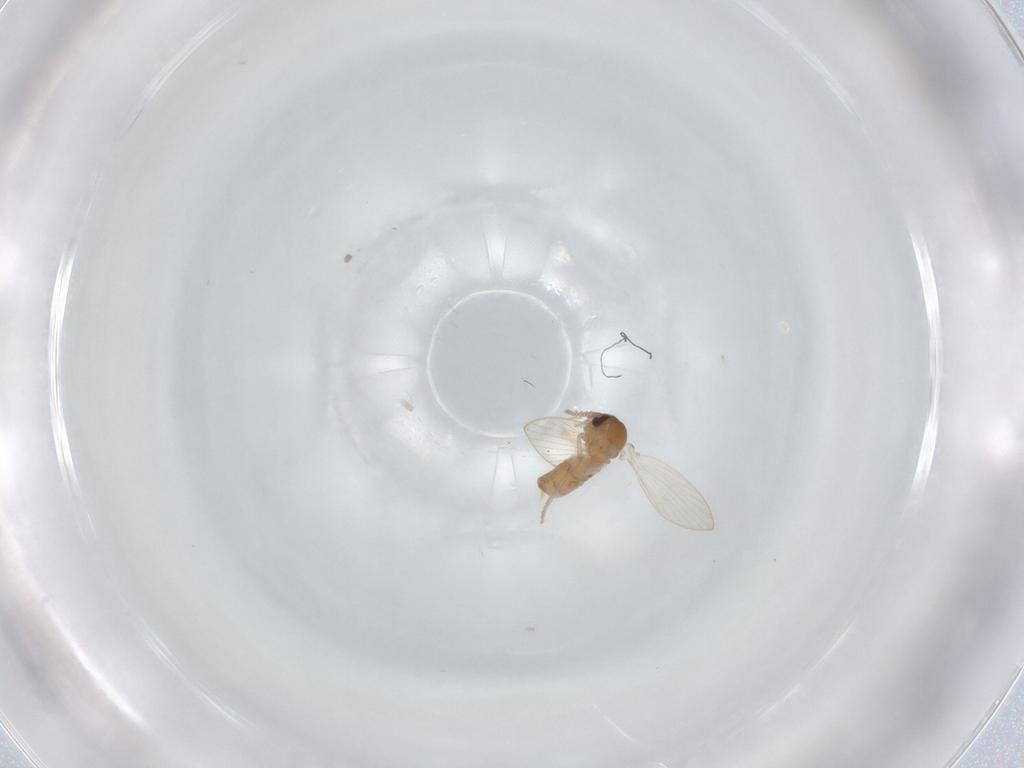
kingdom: Animalia
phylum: Arthropoda
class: Insecta
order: Diptera
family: Psychodidae
